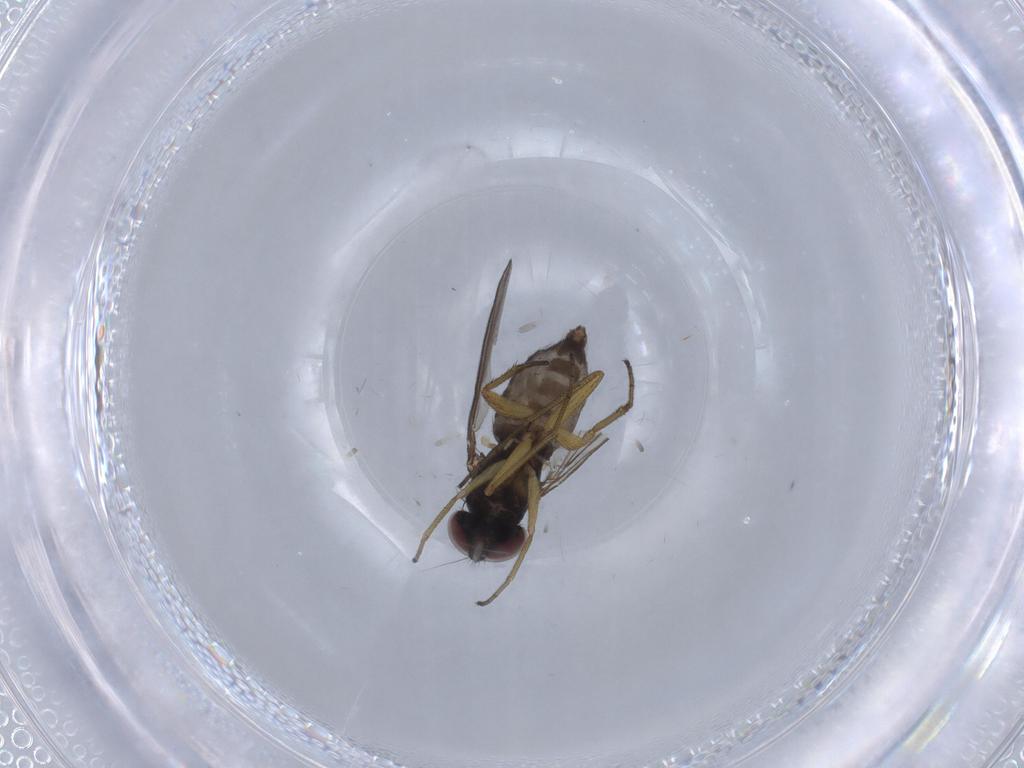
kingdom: Animalia
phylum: Arthropoda
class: Insecta
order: Diptera
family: Dolichopodidae
